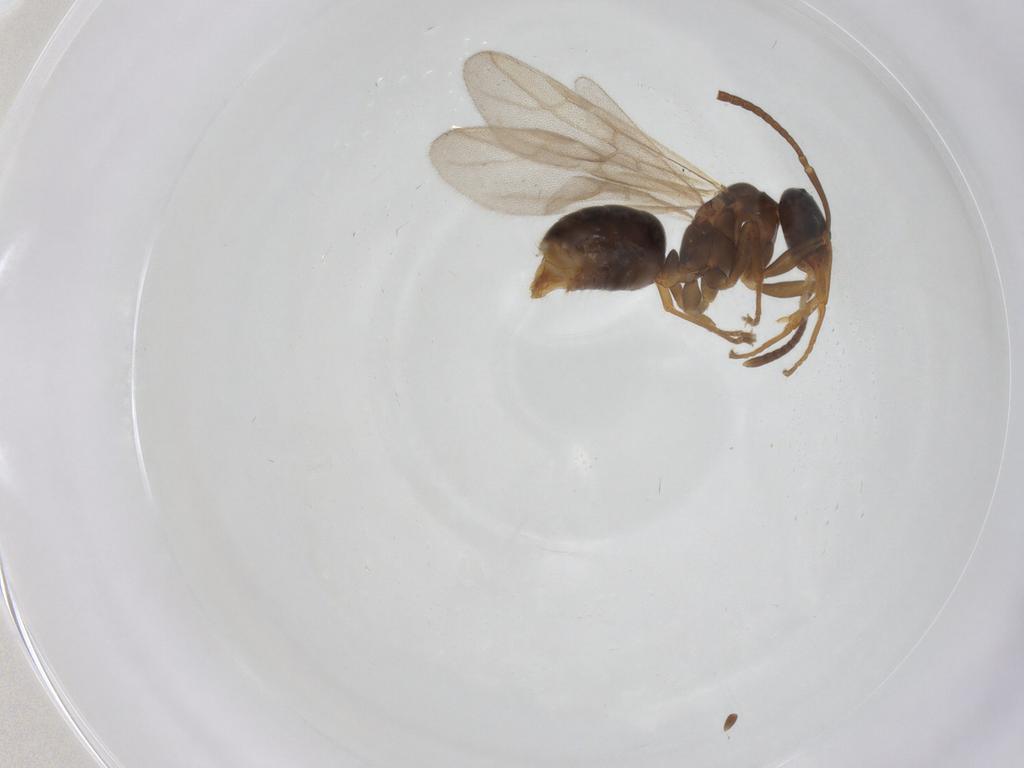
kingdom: Animalia
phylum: Arthropoda
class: Insecta
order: Hymenoptera
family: Formicidae
